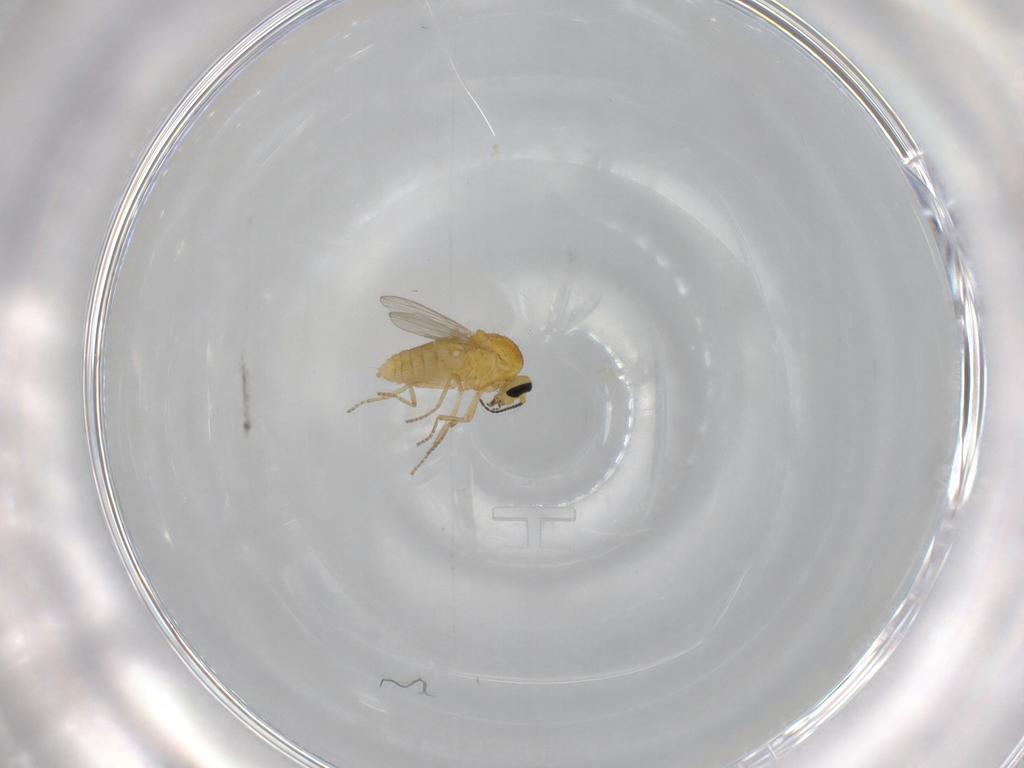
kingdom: Animalia
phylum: Arthropoda
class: Insecta
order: Diptera
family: Ceratopogonidae
